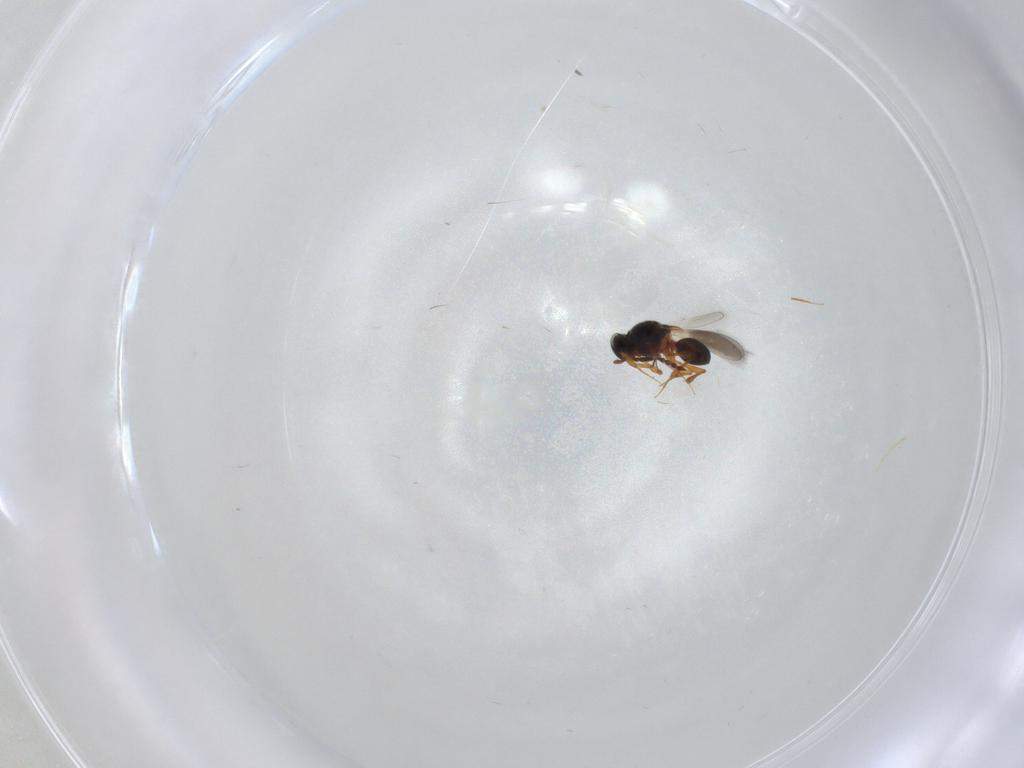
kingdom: Animalia
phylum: Arthropoda
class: Insecta
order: Hymenoptera
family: Platygastridae
